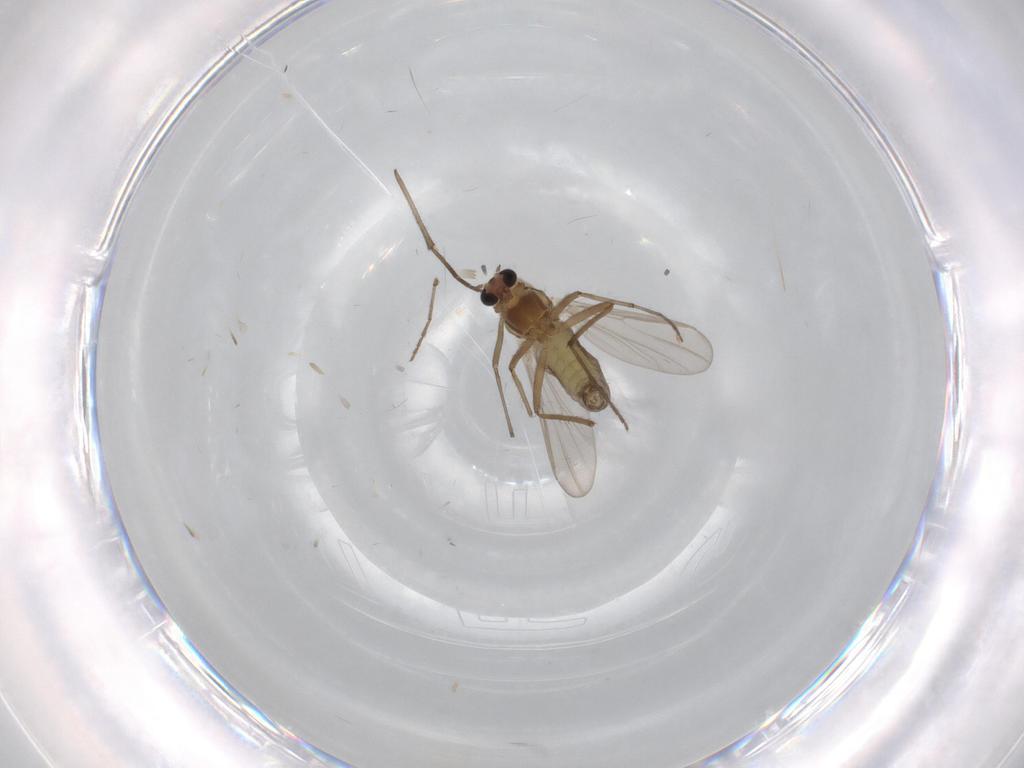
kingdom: Animalia
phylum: Arthropoda
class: Insecta
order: Diptera
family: Chironomidae
